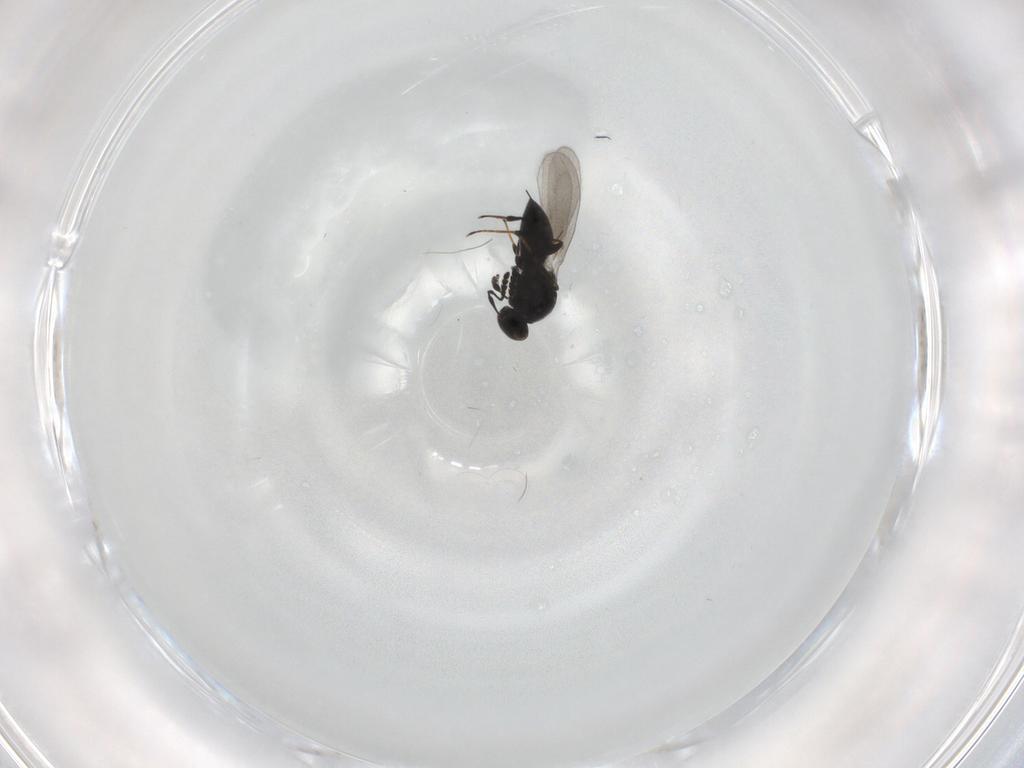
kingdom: Animalia
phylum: Arthropoda
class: Insecta
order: Hymenoptera
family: Platygastridae
